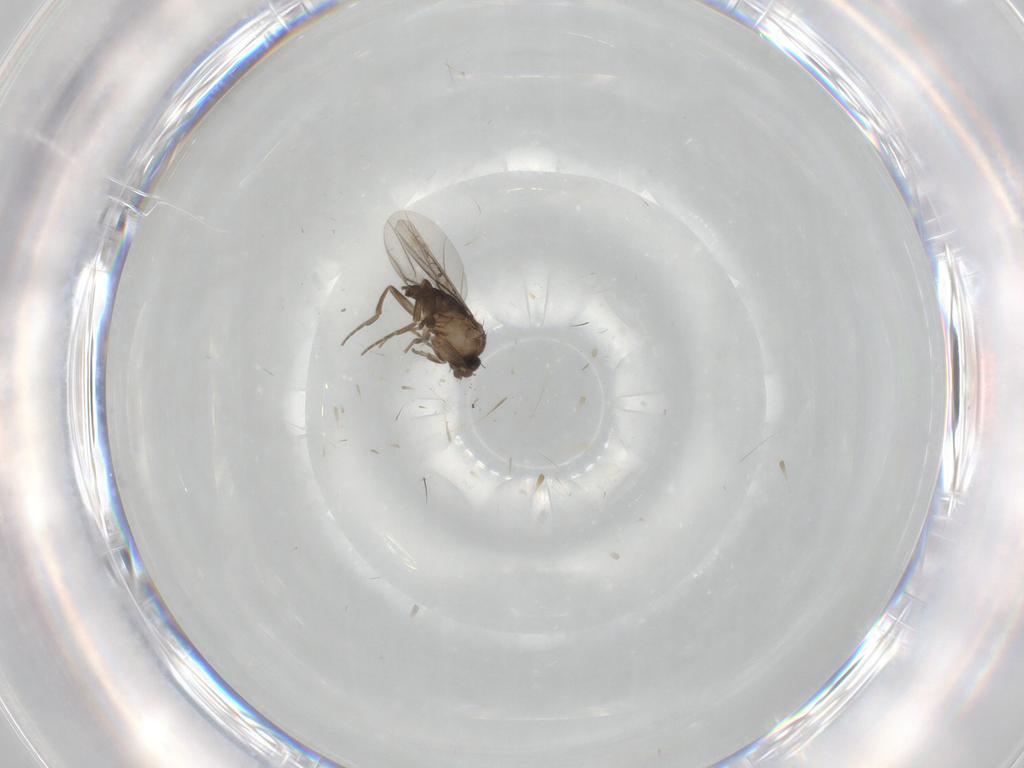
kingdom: Animalia
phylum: Arthropoda
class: Insecta
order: Diptera
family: Phoridae
